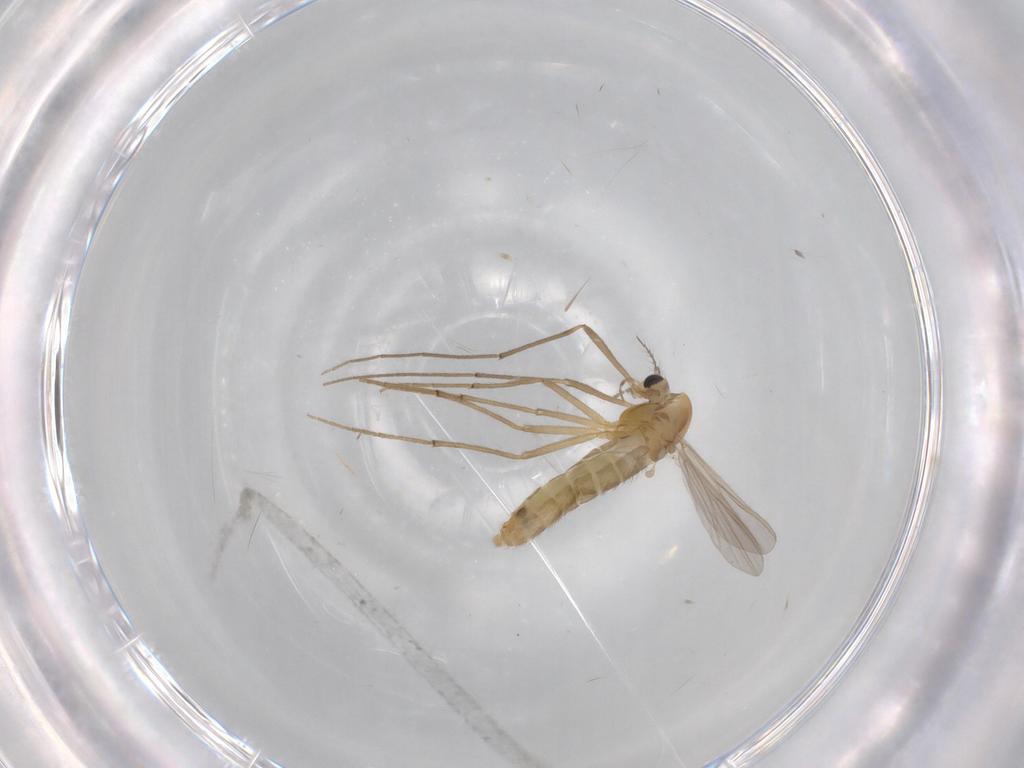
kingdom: Animalia
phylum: Arthropoda
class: Insecta
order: Diptera
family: Chironomidae
